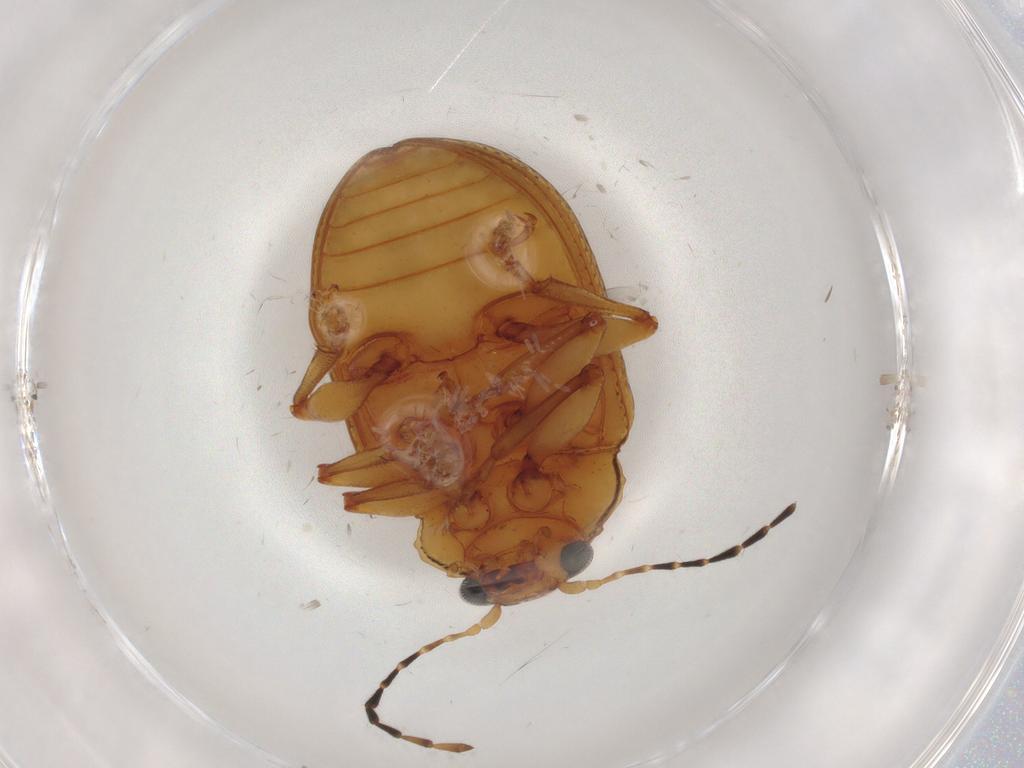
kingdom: Animalia
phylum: Arthropoda
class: Insecta
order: Coleoptera
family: Chrysomelidae
